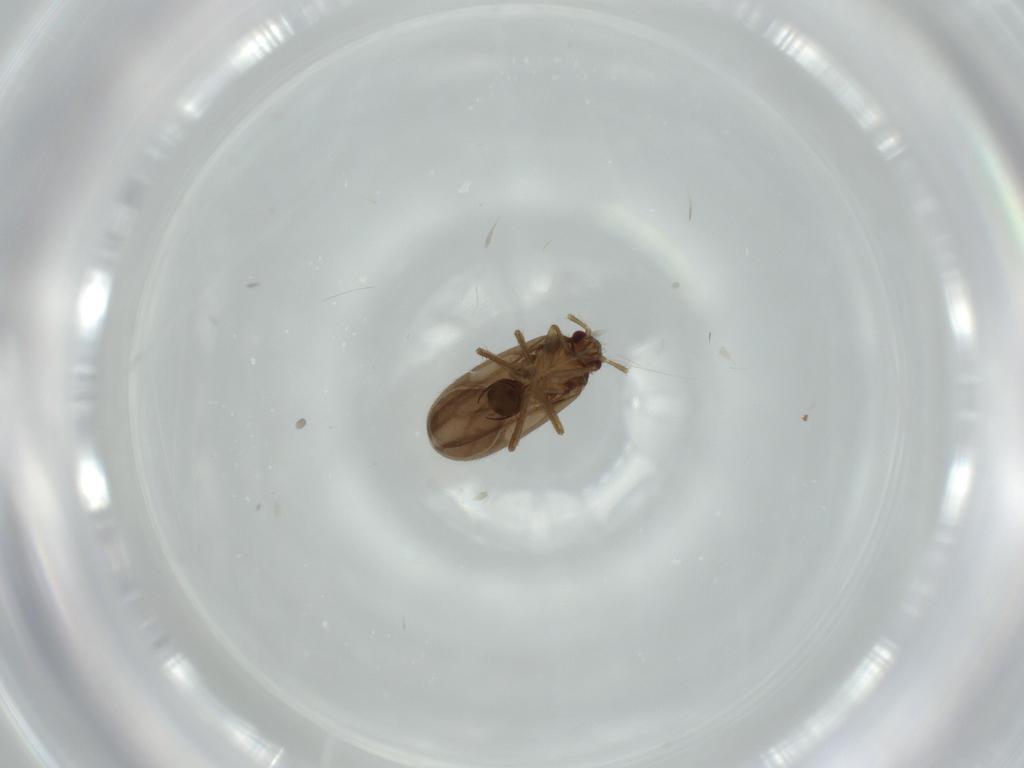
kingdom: Animalia
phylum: Arthropoda
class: Insecta
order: Hemiptera
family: Ceratocombidae
